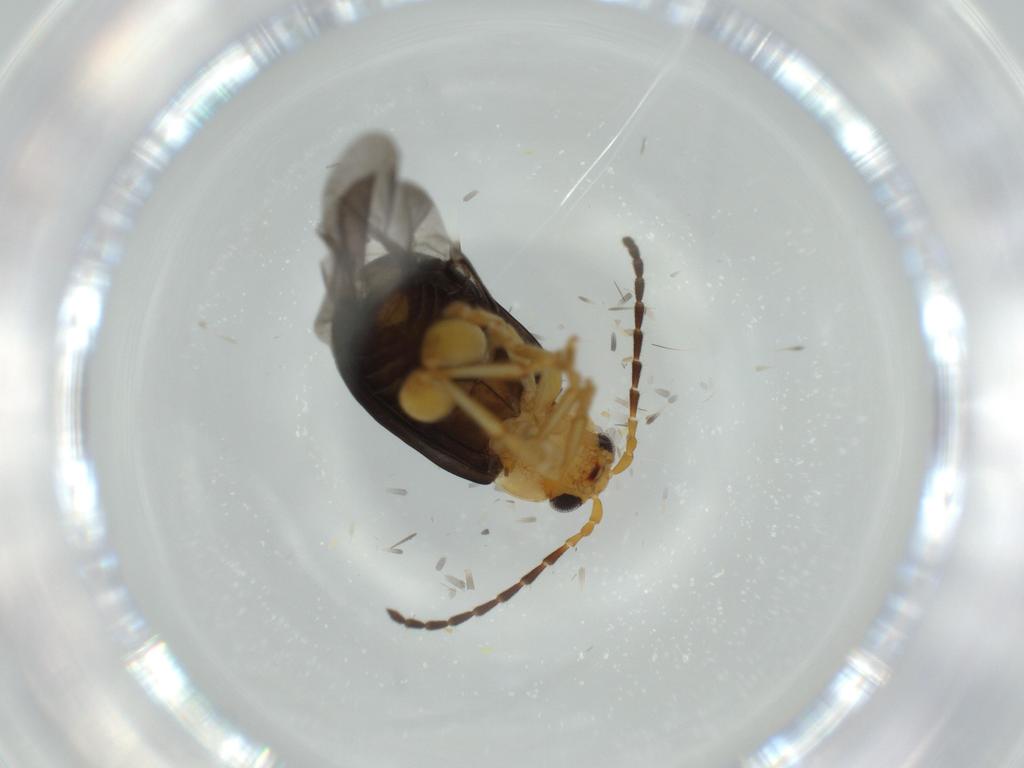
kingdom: Animalia
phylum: Arthropoda
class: Insecta
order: Coleoptera
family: Chrysomelidae
